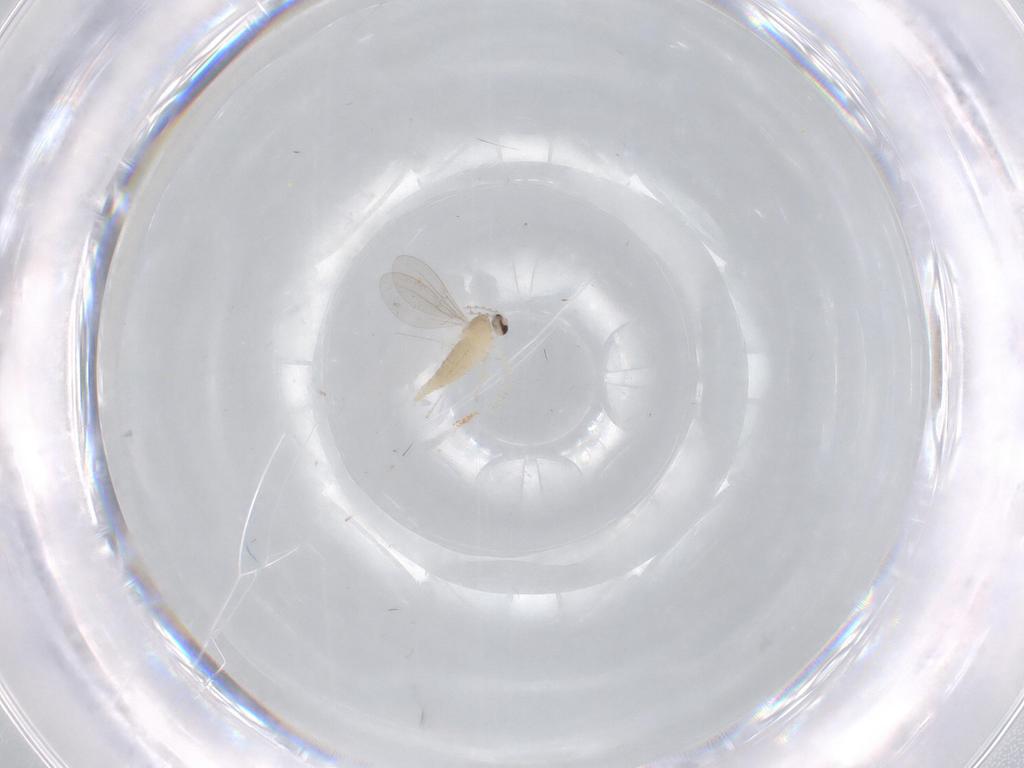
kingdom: Animalia
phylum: Arthropoda
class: Insecta
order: Diptera
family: Cecidomyiidae
